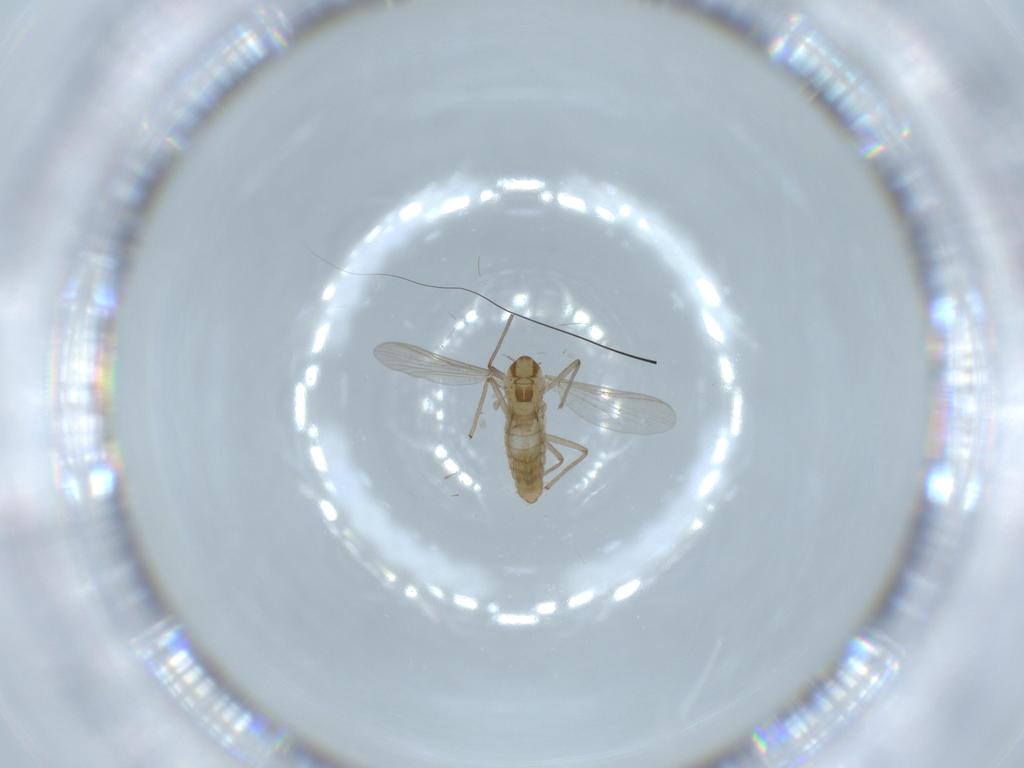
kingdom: Animalia
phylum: Arthropoda
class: Insecta
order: Diptera
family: Chironomidae
